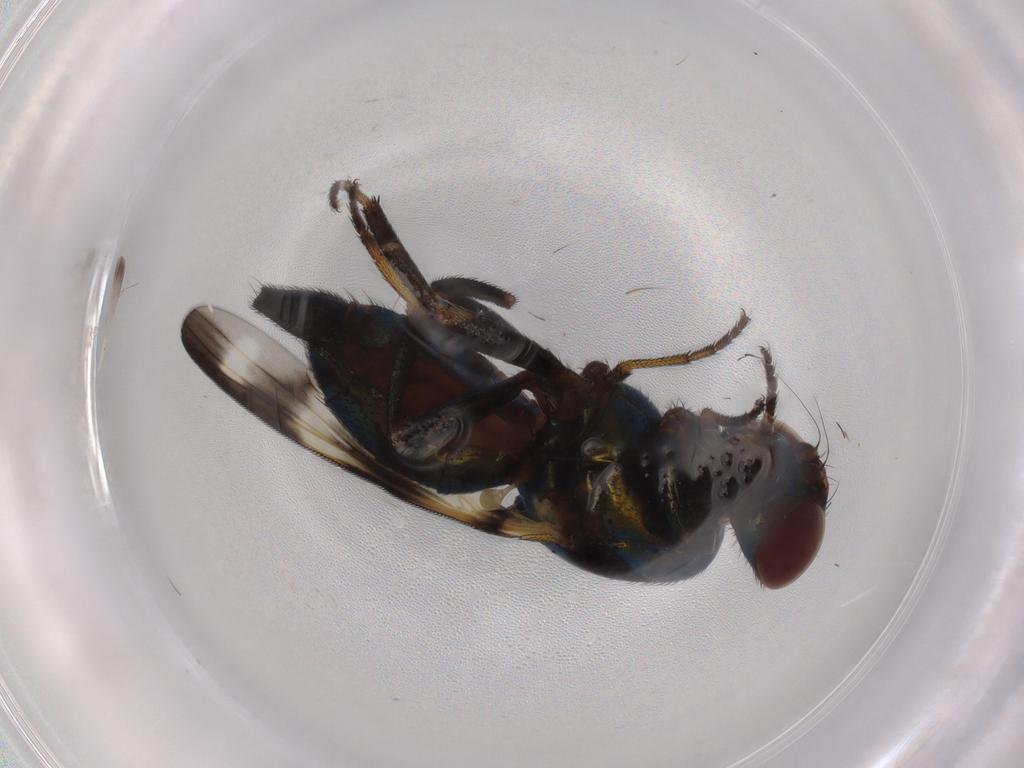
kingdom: Animalia
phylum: Arthropoda
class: Insecta
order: Diptera
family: Ulidiidae
